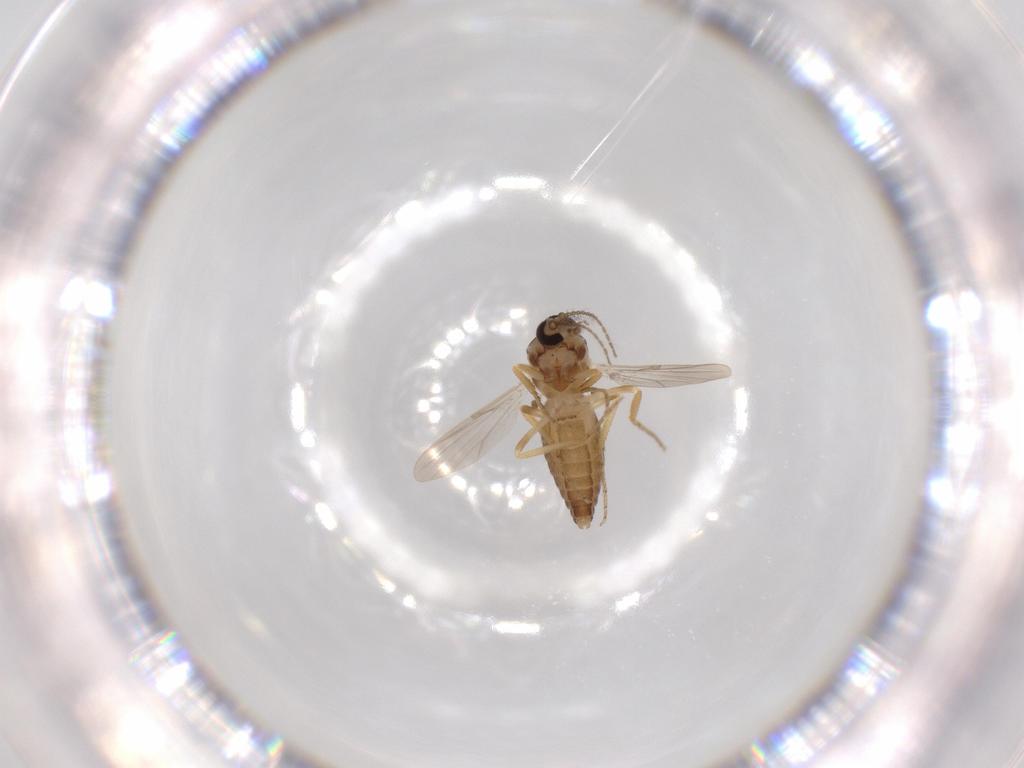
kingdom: Animalia
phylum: Arthropoda
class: Insecta
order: Diptera
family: Ceratopogonidae
